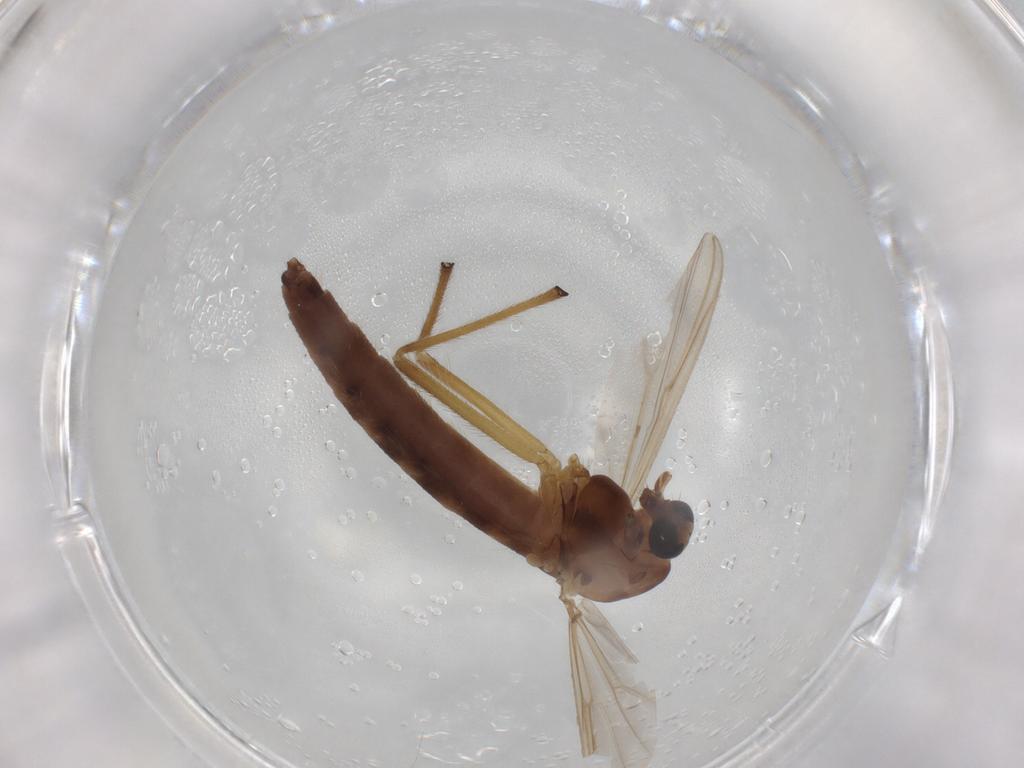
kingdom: Animalia
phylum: Arthropoda
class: Insecta
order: Diptera
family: Chironomidae
